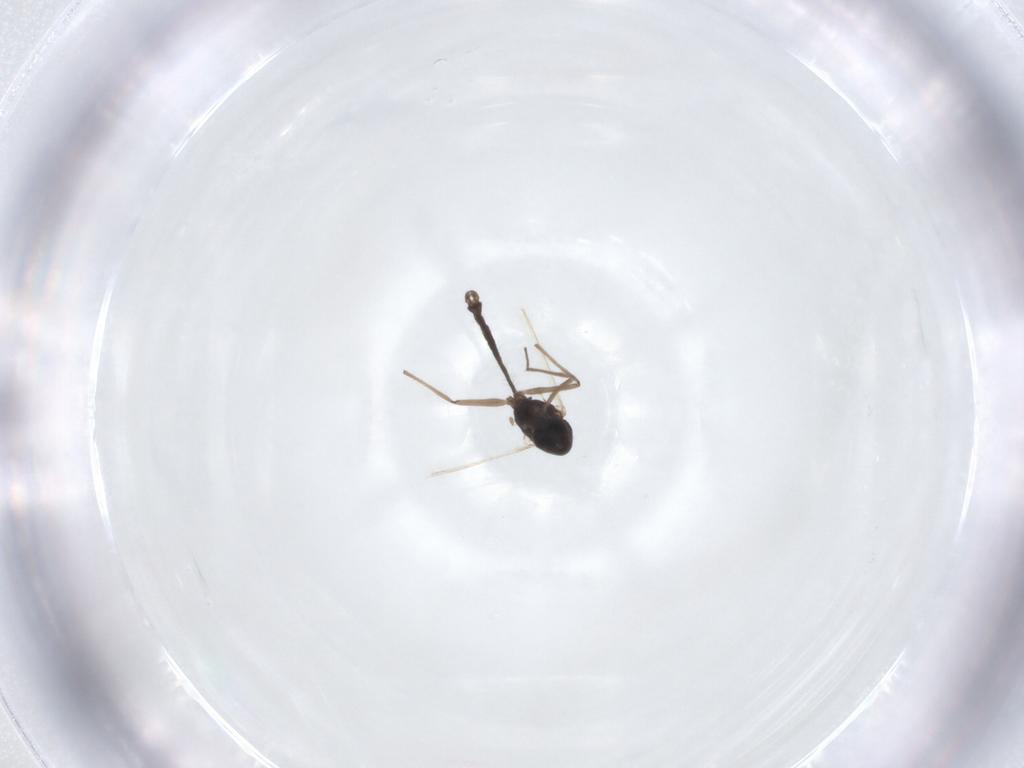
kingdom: Animalia
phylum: Arthropoda
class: Insecta
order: Diptera
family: Chironomidae
